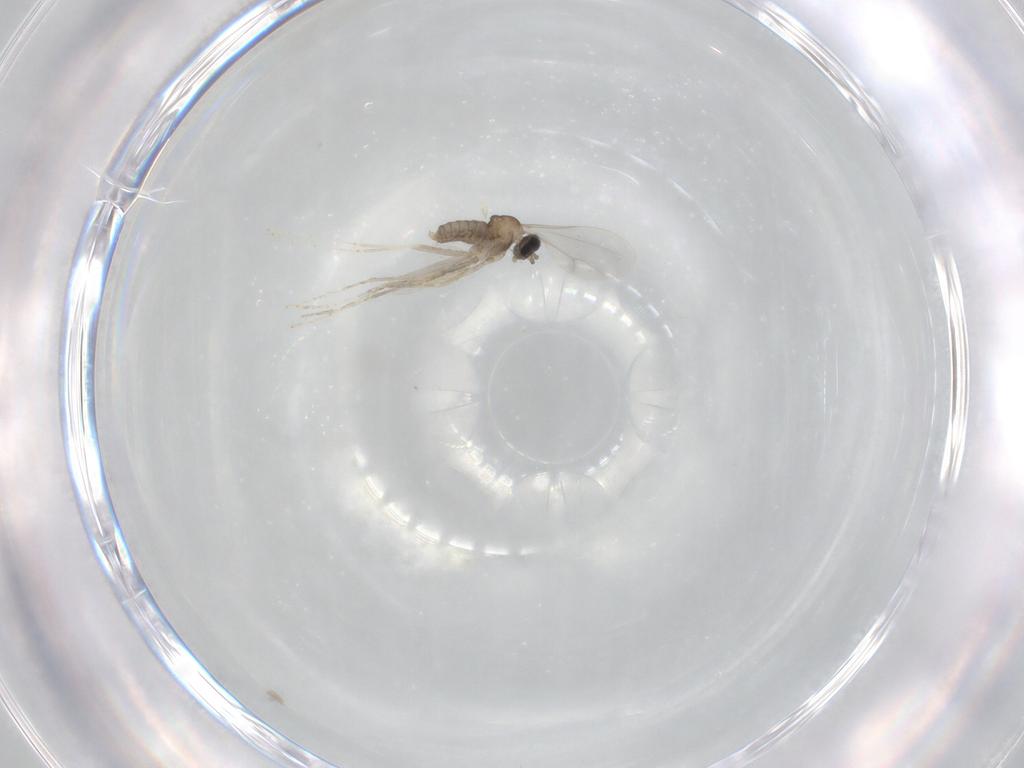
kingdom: Animalia
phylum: Arthropoda
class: Insecta
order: Diptera
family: Cecidomyiidae
